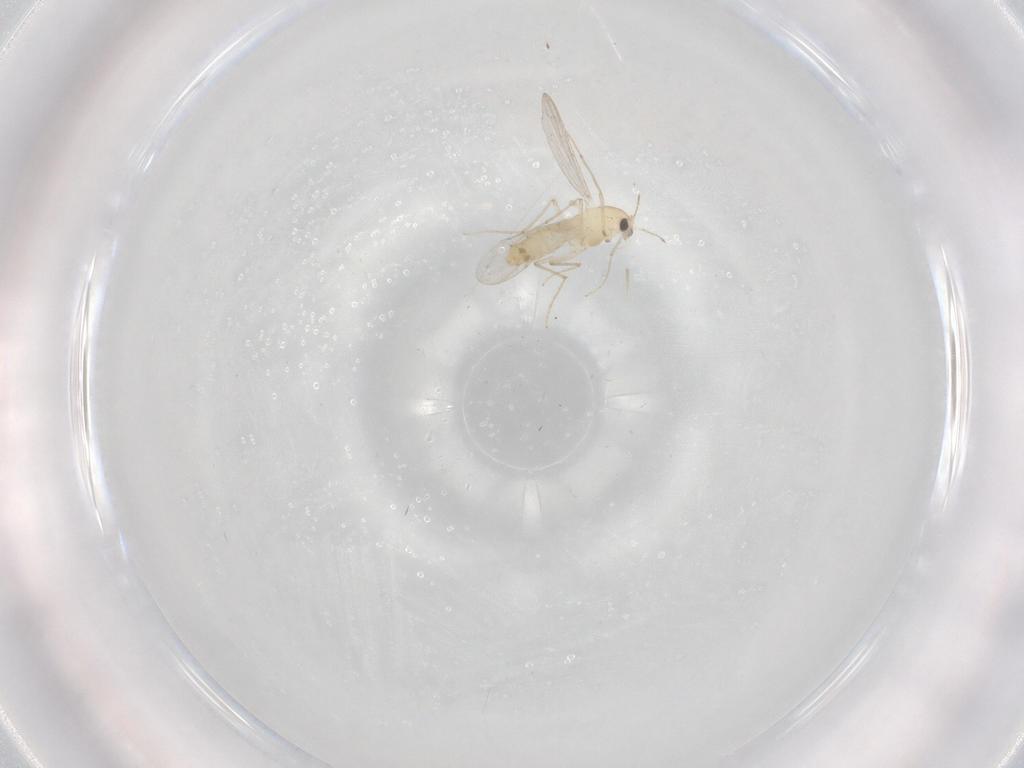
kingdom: Animalia
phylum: Arthropoda
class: Insecta
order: Diptera
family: Cecidomyiidae
